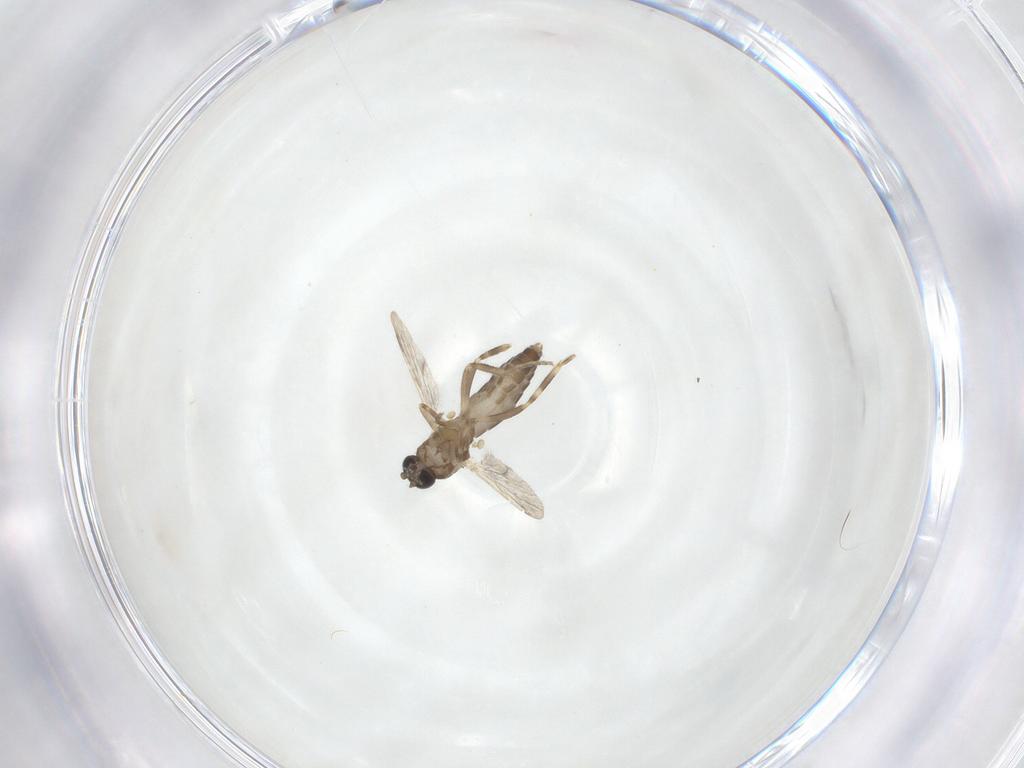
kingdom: Animalia
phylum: Arthropoda
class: Insecta
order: Diptera
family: Ceratopogonidae
